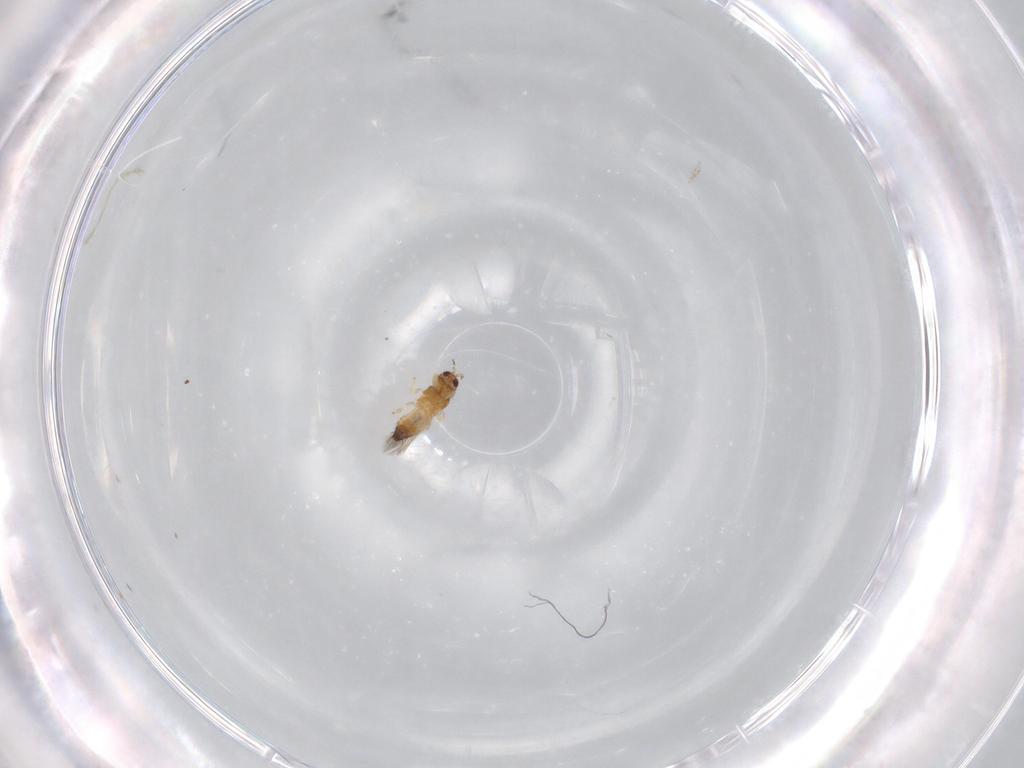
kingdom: Animalia
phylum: Arthropoda
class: Insecta
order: Thysanoptera
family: Thripidae
